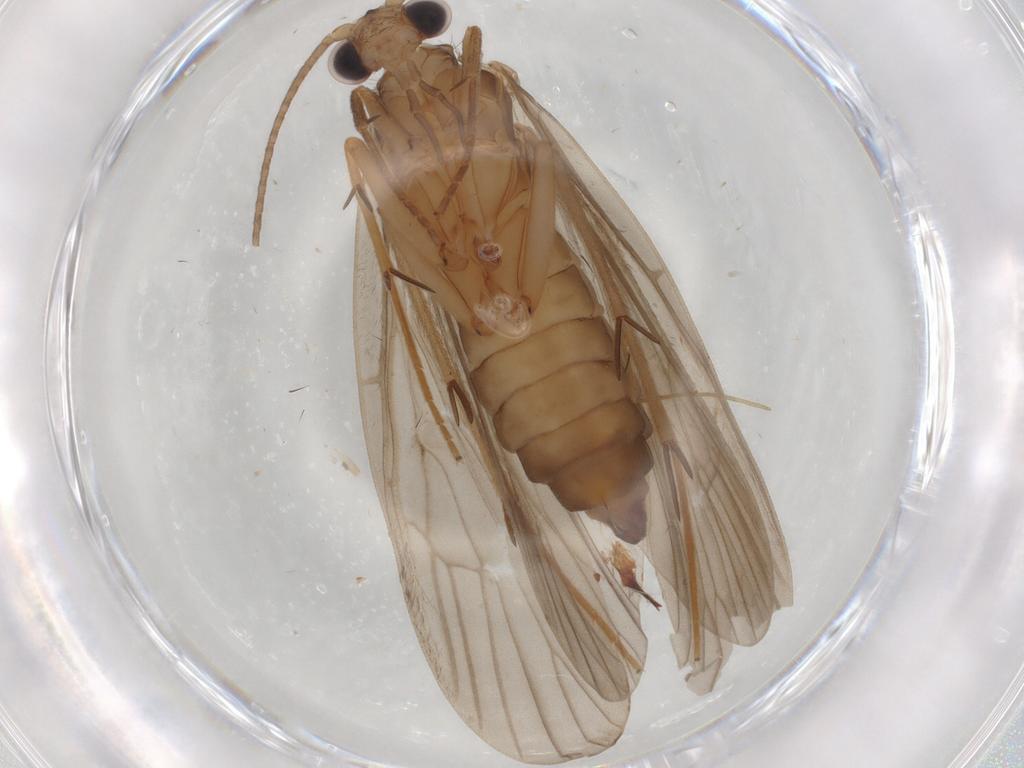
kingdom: Animalia
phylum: Arthropoda
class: Insecta
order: Trichoptera
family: Philopotamidae
